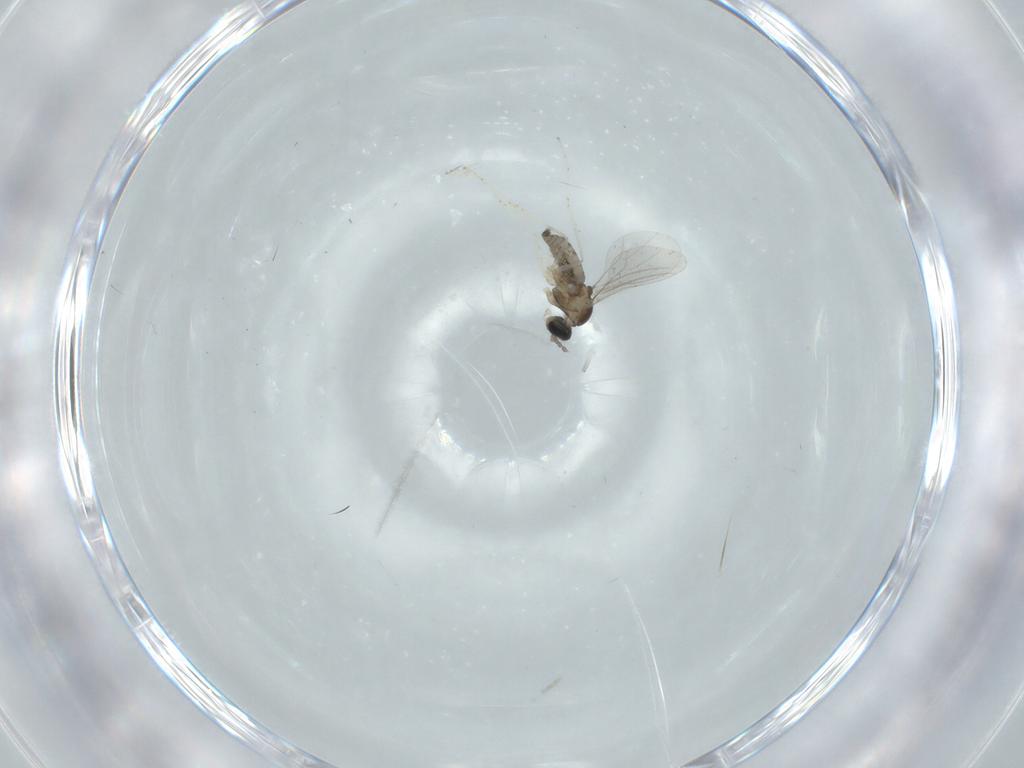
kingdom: Animalia
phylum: Arthropoda
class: Insecta
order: Diptera
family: Cecidomyiidae
